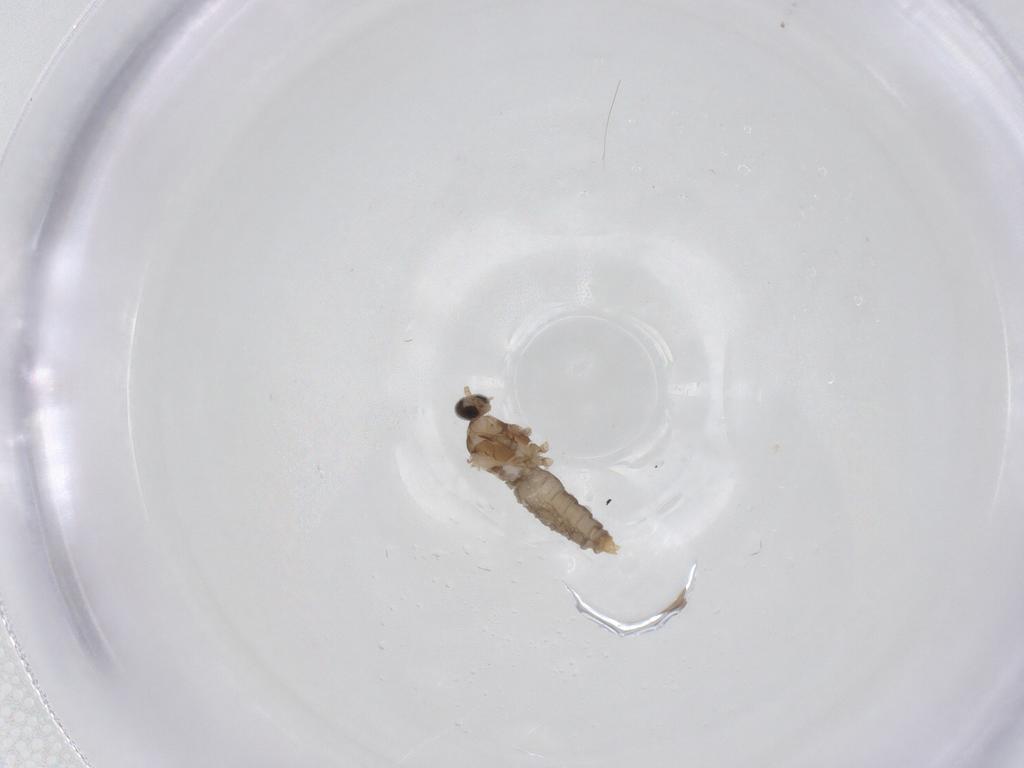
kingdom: Animalia
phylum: Arthropoda
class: Insecta
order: Diptera
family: Cecidomyiidae
